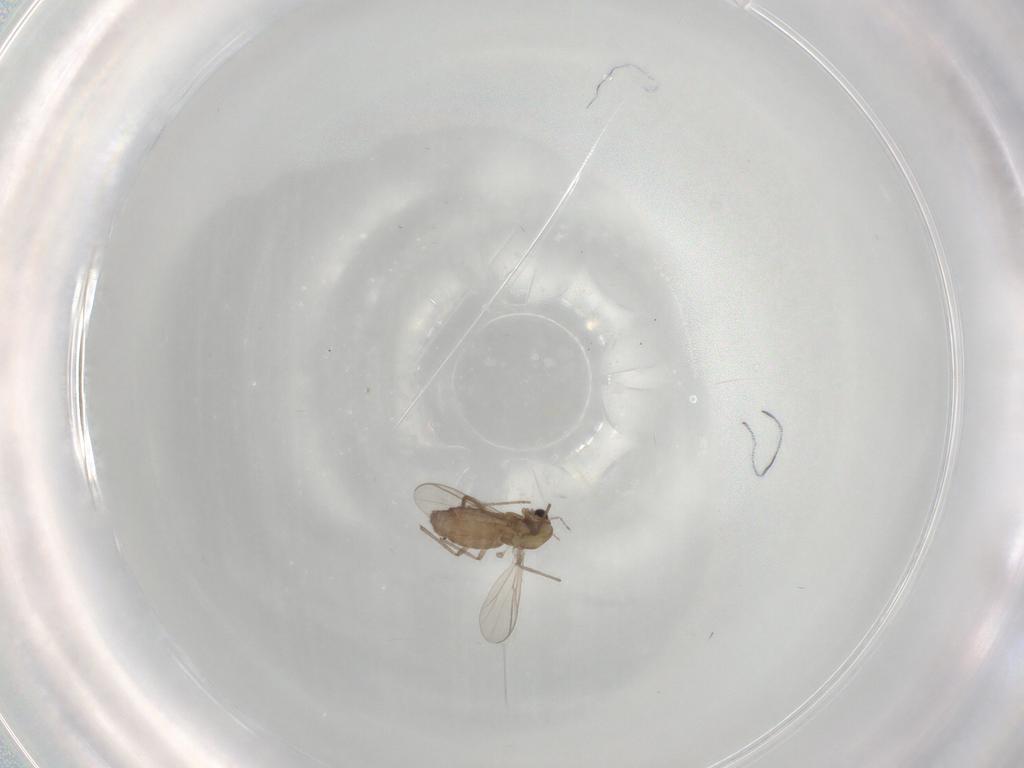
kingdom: Animalia
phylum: Arthropoda
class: Insecta
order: Diptera
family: Chironomidae
